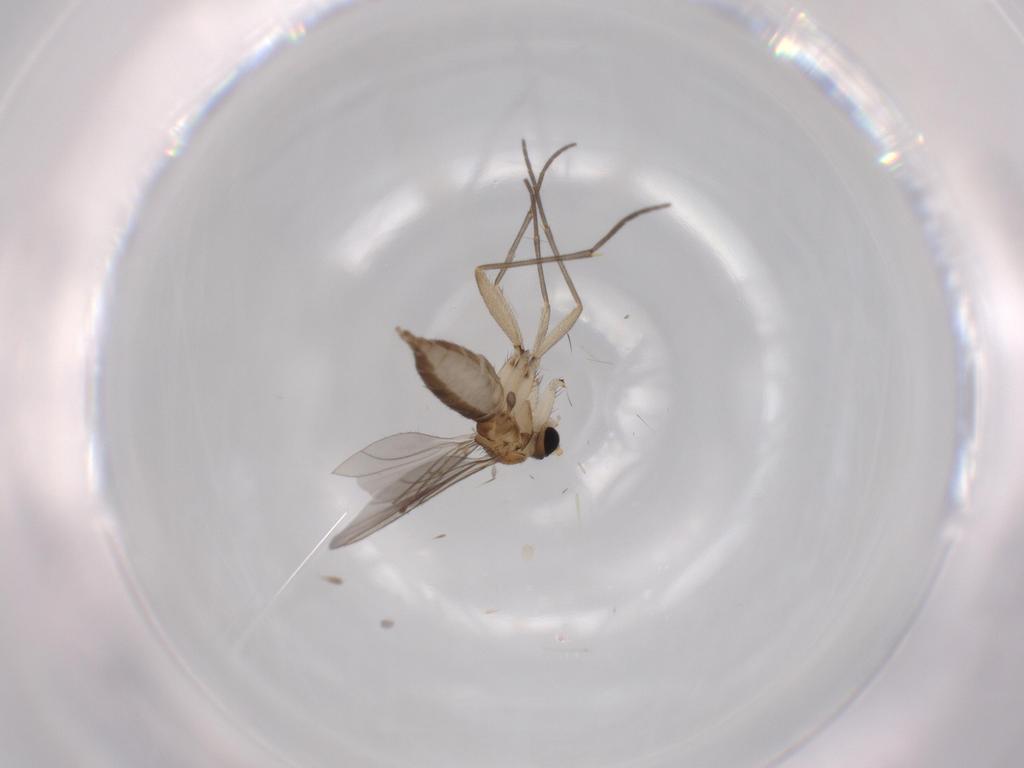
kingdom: Animalia
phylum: Arthropoda
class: Insecta
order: Diptera
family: Sciaridae
